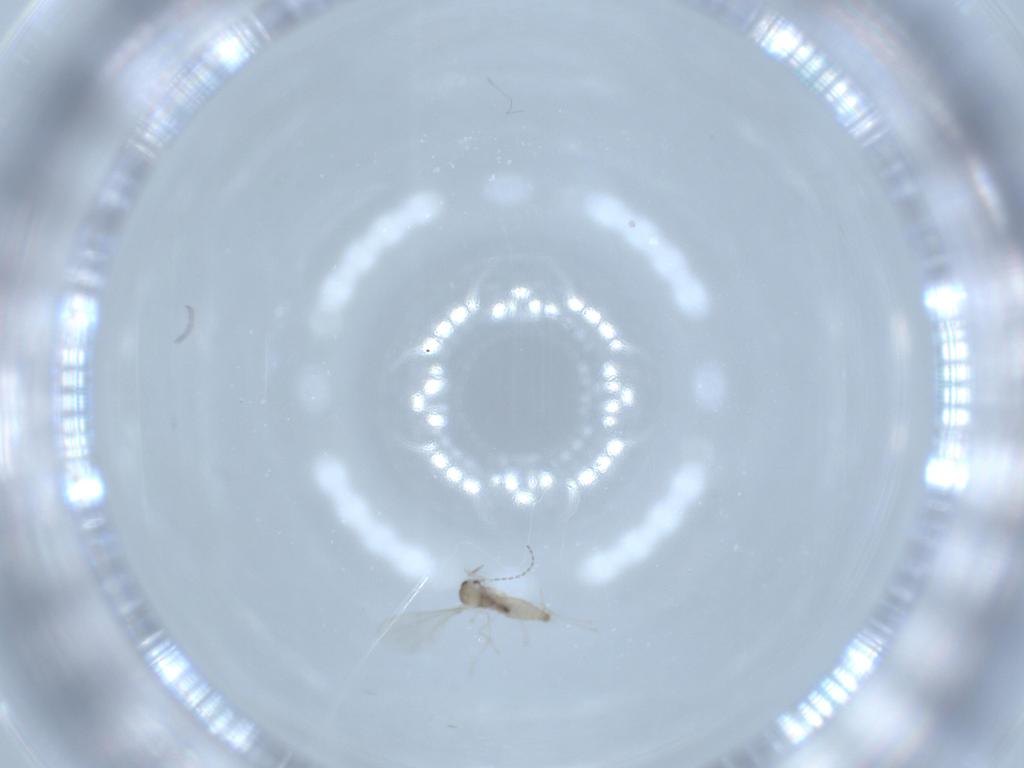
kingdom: Animalia
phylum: Arthropoda
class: Insecta
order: Diptera
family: Cecidomyiidae
